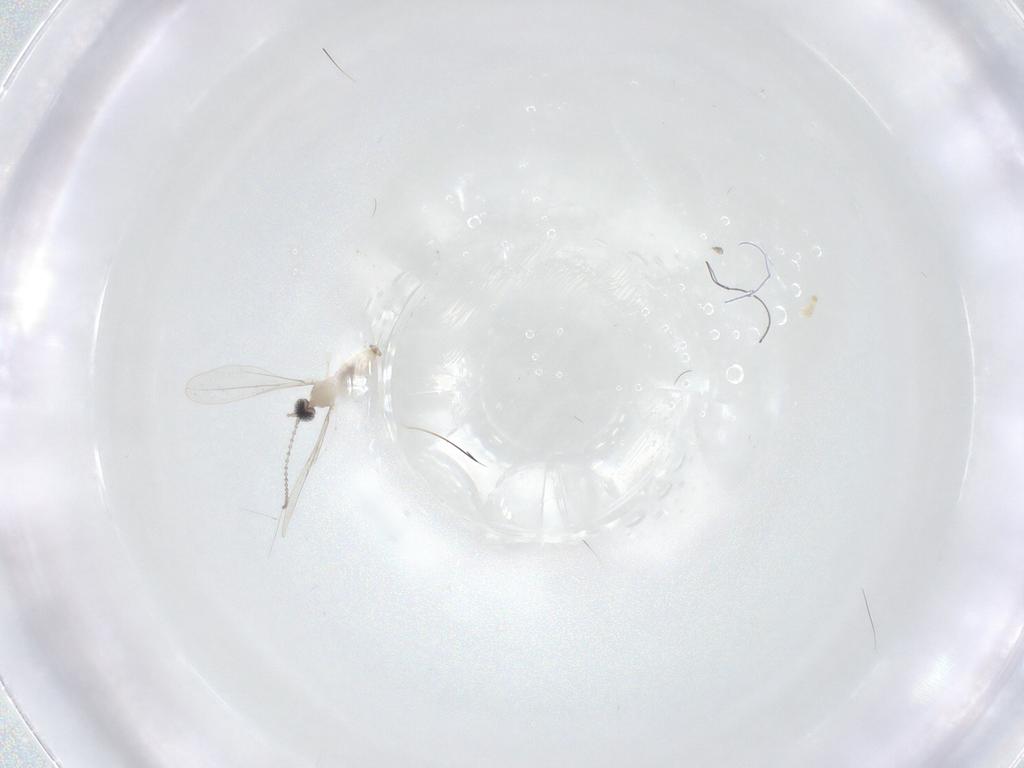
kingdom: Animalia
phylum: Arthropoda
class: Insecta
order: Diptera
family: Cecidomyiidae
